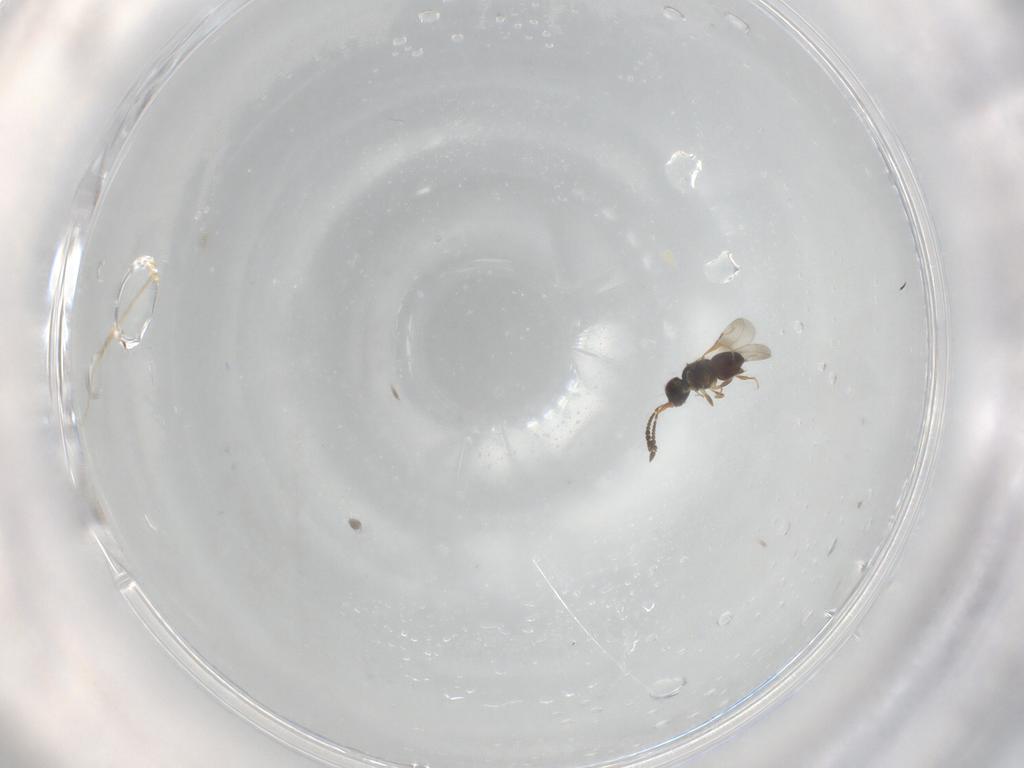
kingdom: Animalia
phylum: Arthropoda
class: Insecta
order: Hymenoptera
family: Ceraphronidae
